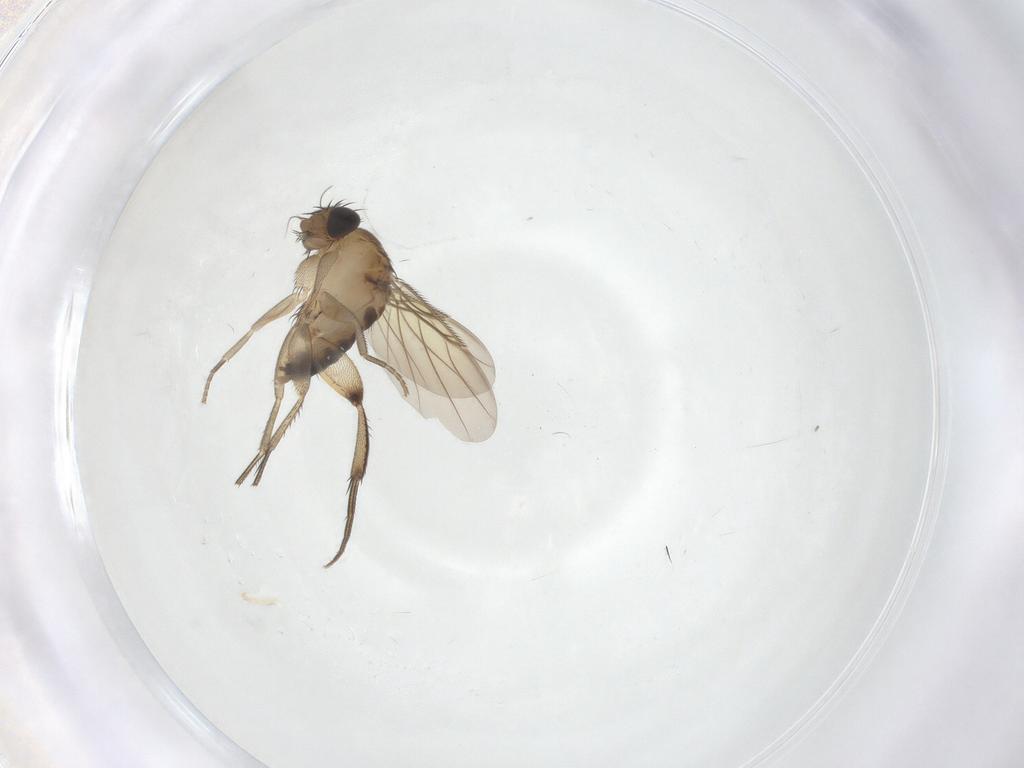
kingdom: Animalia
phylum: Arthropoda
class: Insecta
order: Diptera
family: Phoridae
